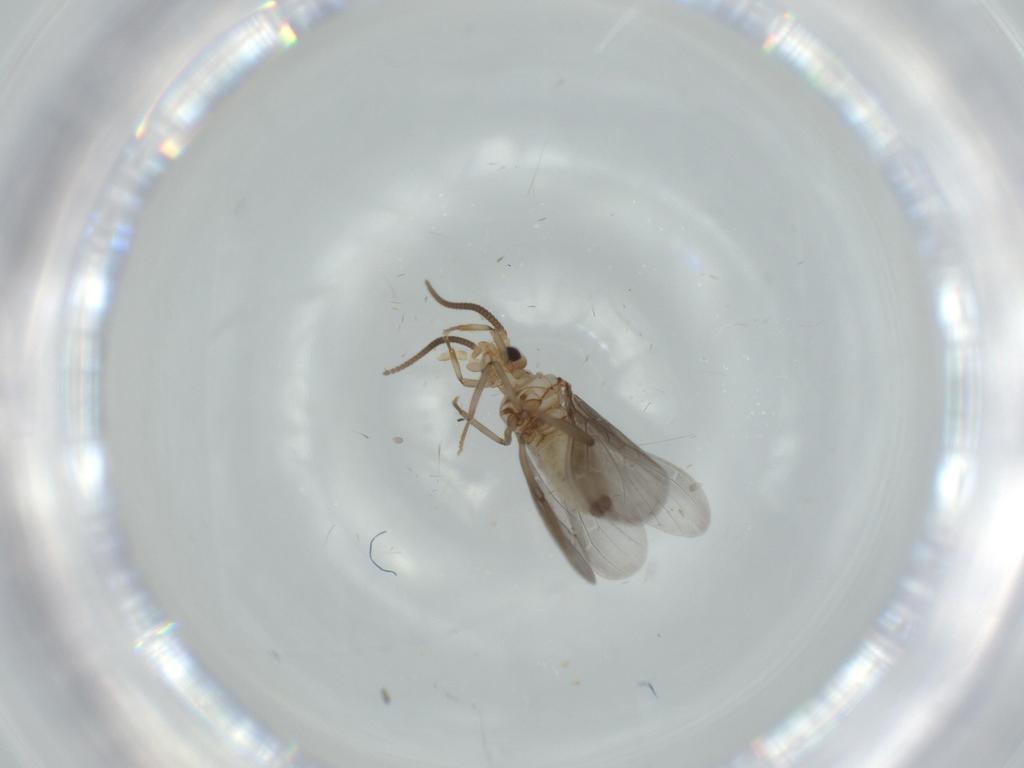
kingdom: Animalia
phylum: Arthropoda
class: Insecta
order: Neuroptera
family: Coniopterygidae
